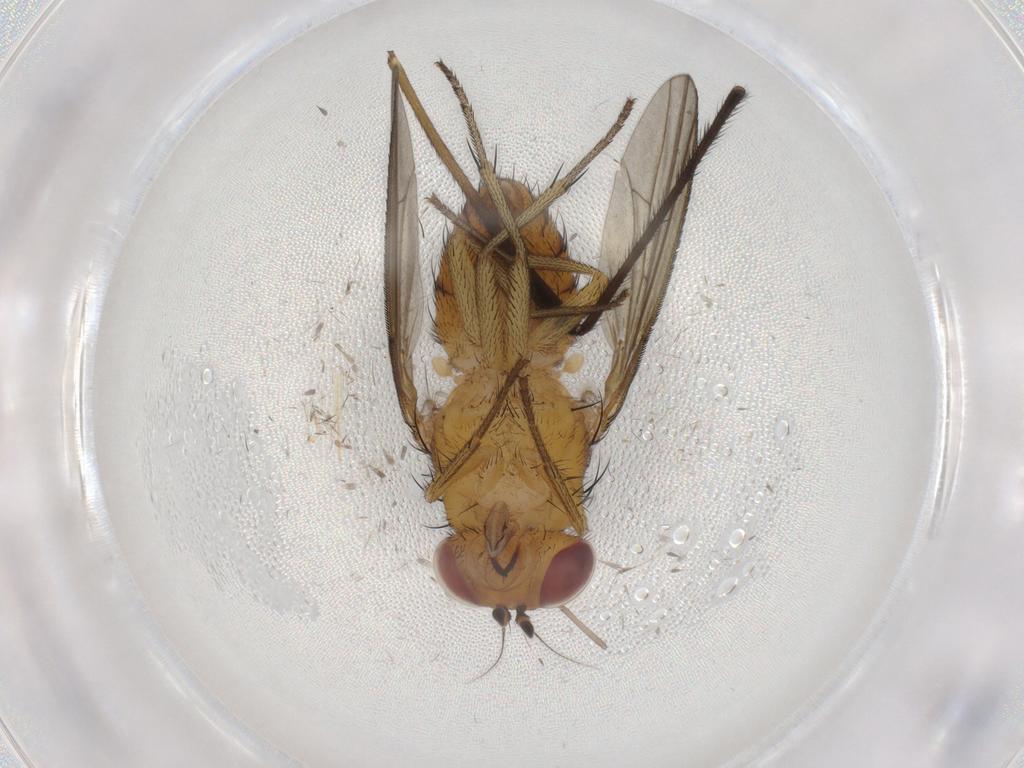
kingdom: Animalia
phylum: Arthropoda
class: Insecta
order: Diptera
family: Limoniidae
